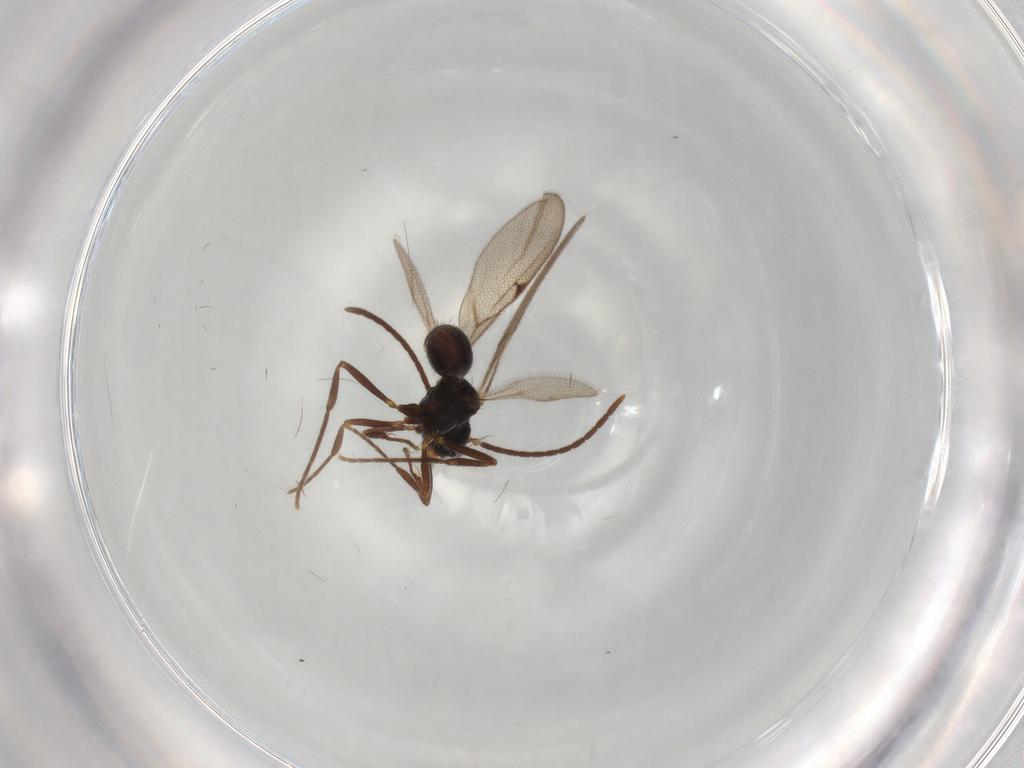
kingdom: Animalia
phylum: Arthropoda
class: Insecta
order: Hymenoptera
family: Formicidae
